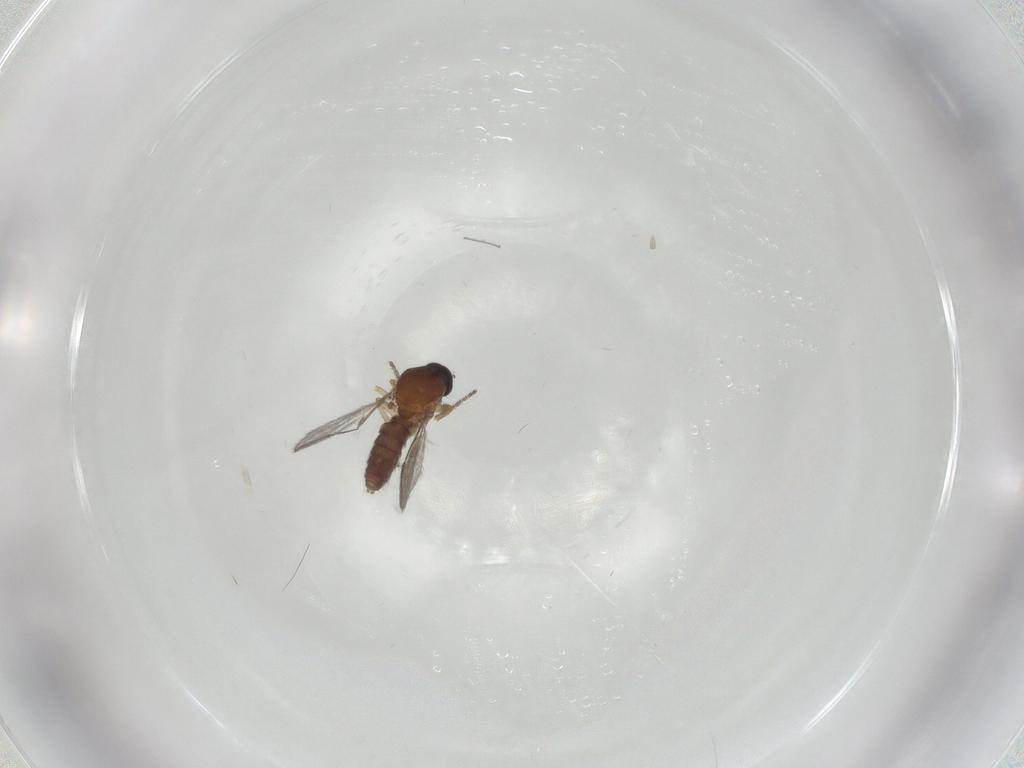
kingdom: Animalia
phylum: Arthropoda
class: Insecta
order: Diptera
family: Ceratopogonidae
